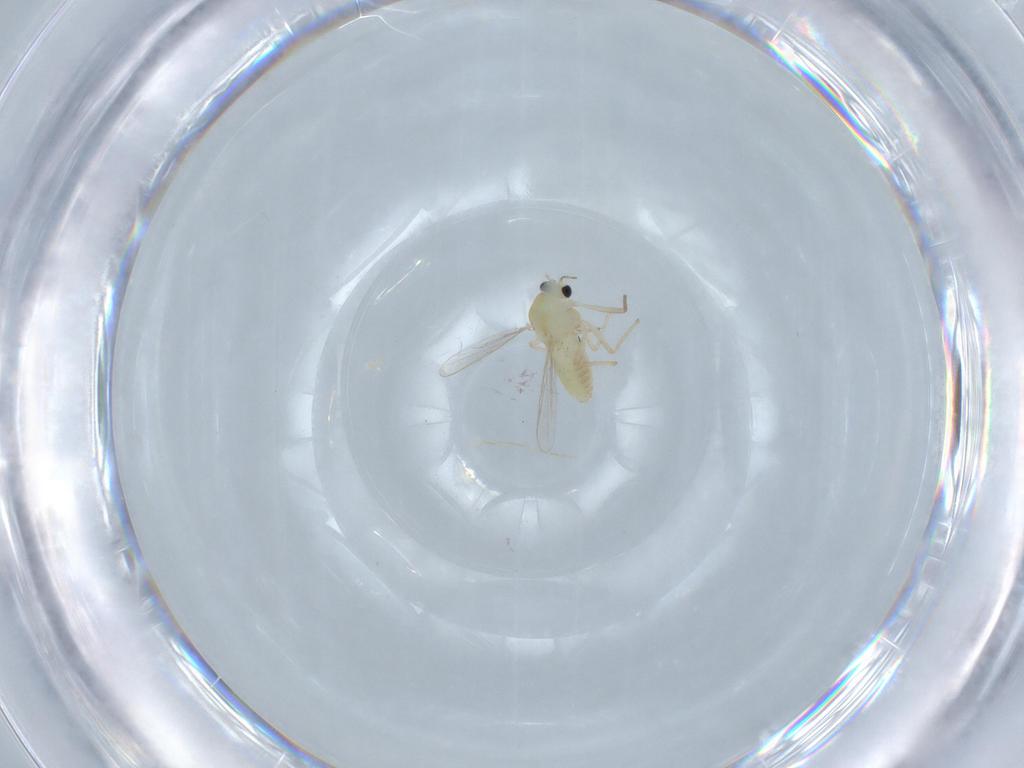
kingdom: Animalia
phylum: Arthropoda
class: Insecta
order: Diptera
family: Chironomidae
